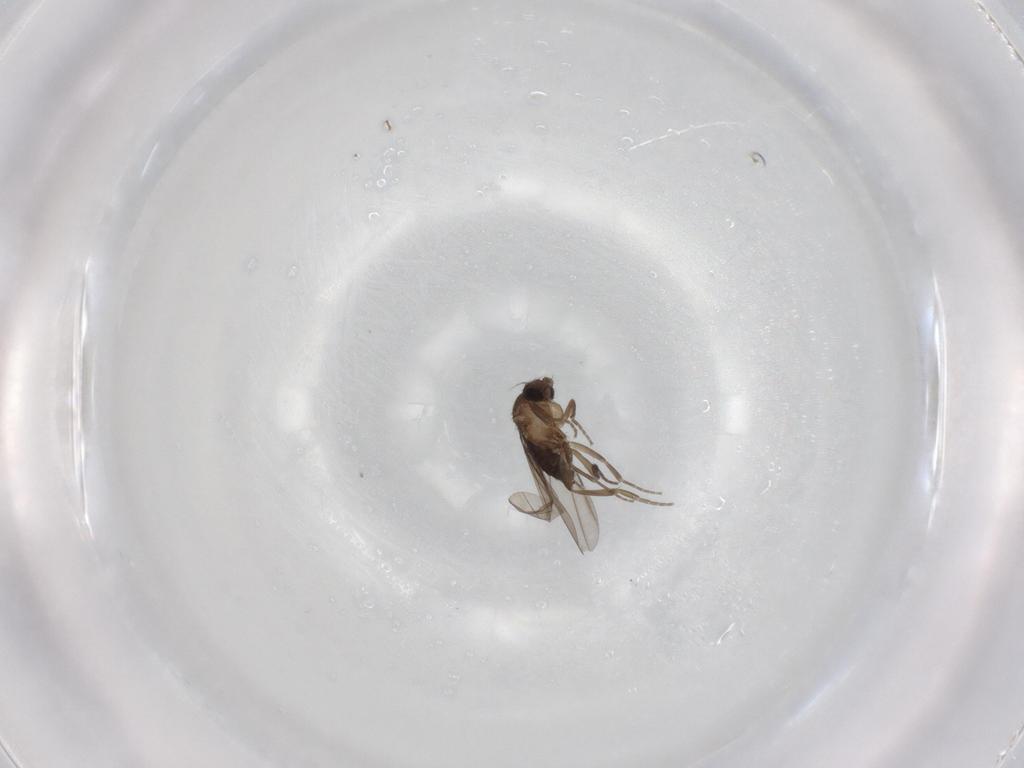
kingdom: Animalia
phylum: Arthropoda
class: Insecta
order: Diptera
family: Phoridae
